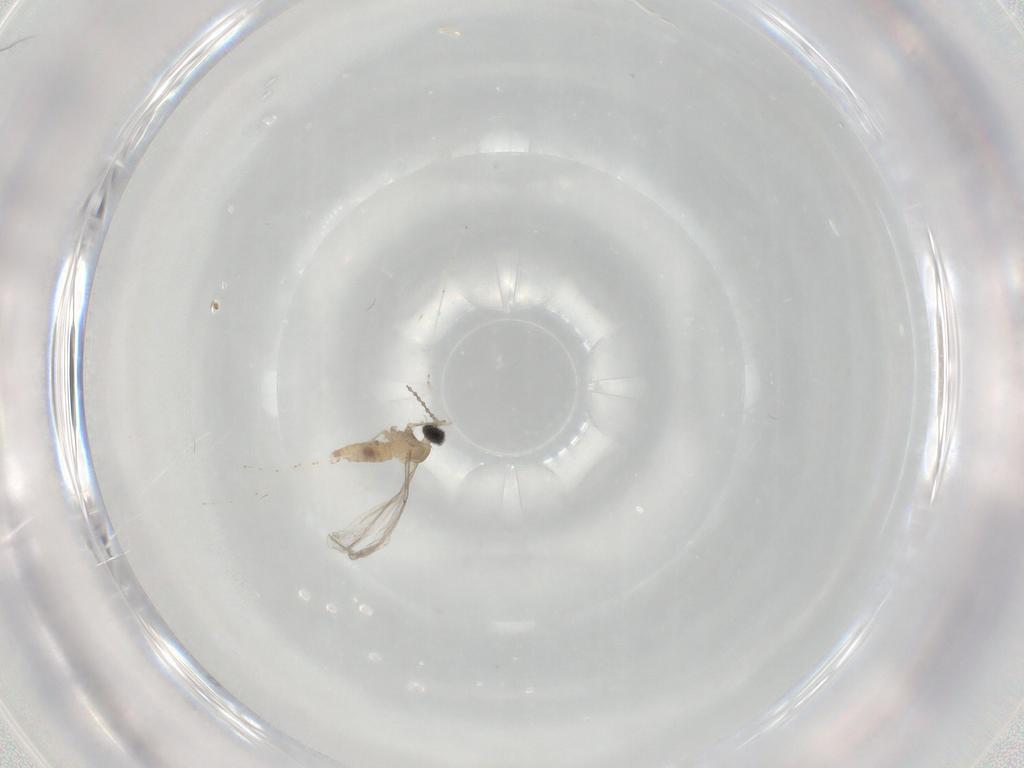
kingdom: Animalia
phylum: Arthropoda
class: Insecta
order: Diptera
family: Cecidomyiidae
